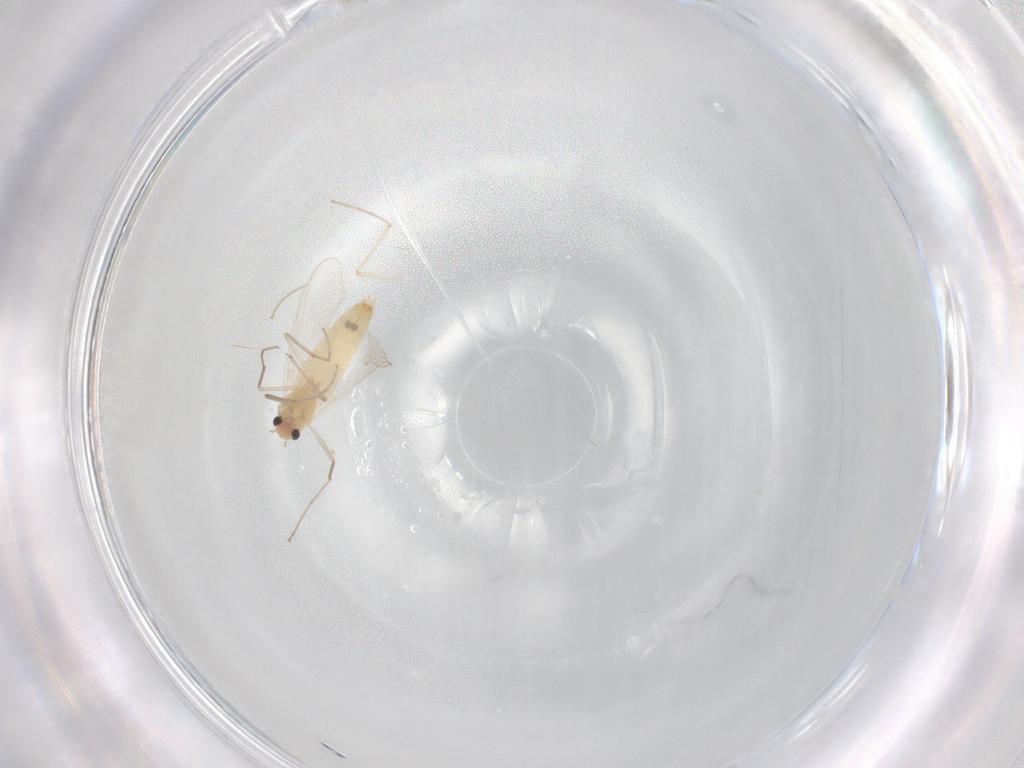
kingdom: Animalia
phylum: Arthropoda
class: Insecta
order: Diptera
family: Chironomidae
